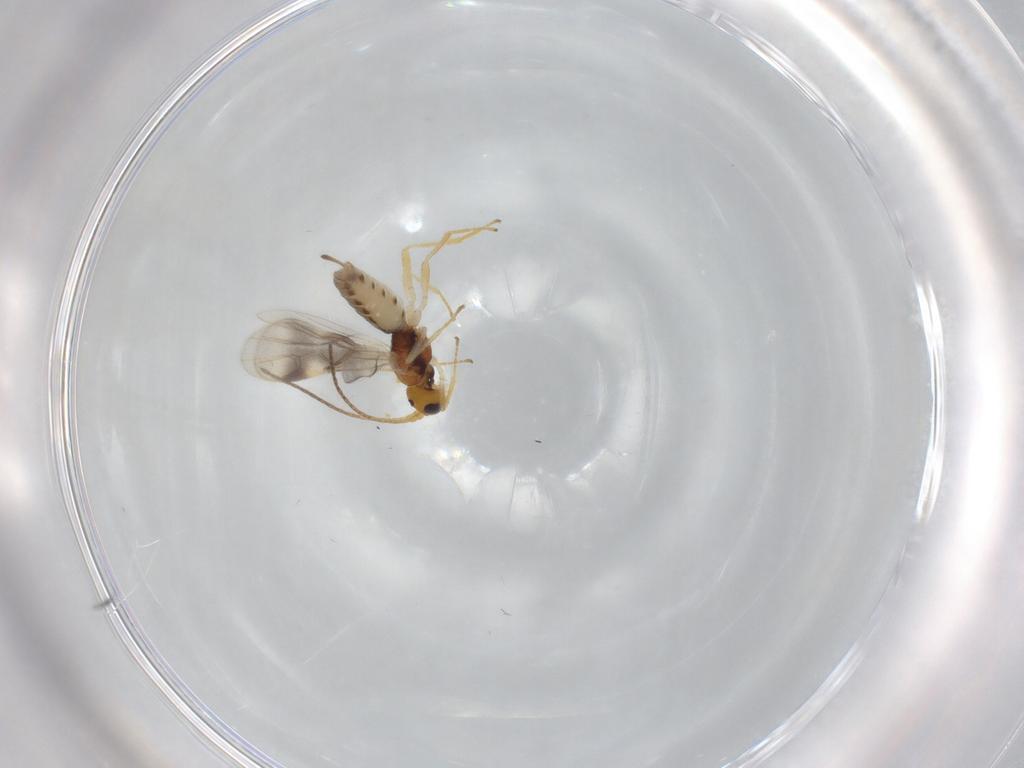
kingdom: Animalia
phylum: Arthropoda
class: Insecta
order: Hymenoptera
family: Braconidae
